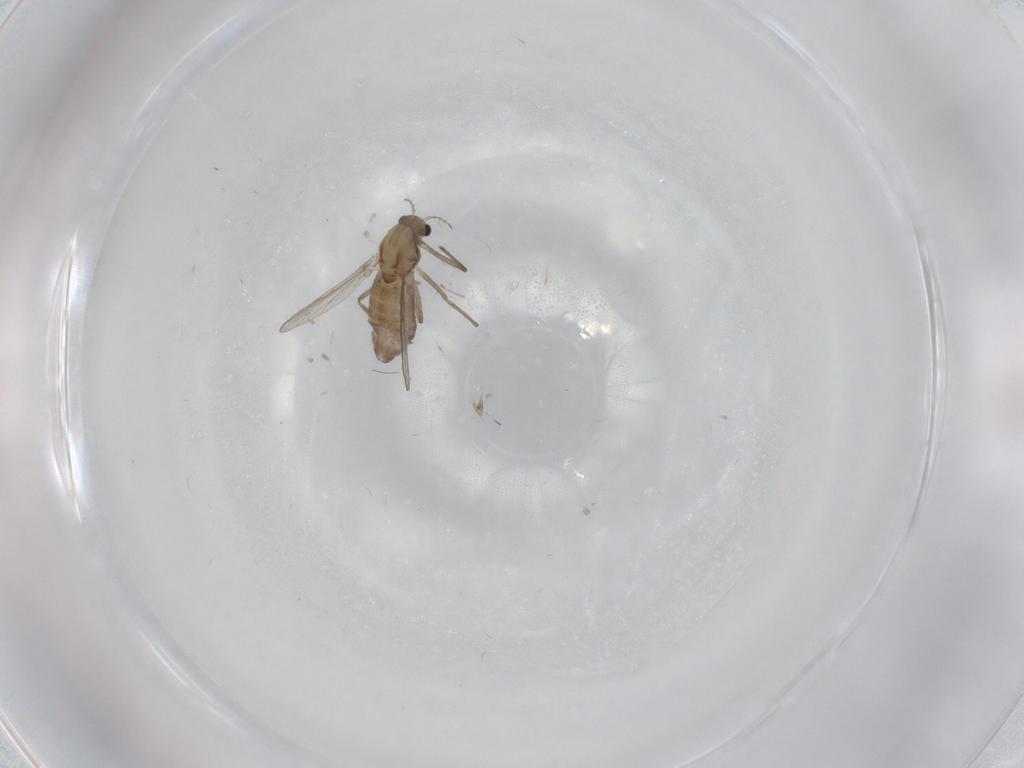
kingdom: Animalia
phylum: Arthropoda
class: Insecta
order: Diptera
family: Chironomidae
